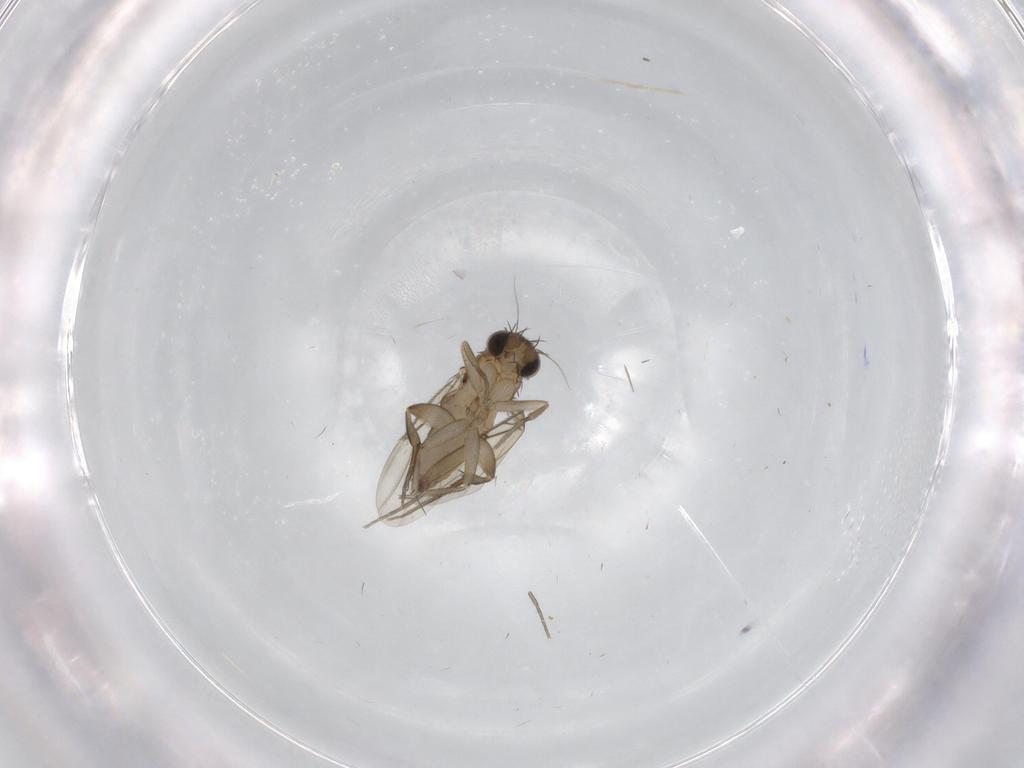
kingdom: Animalia
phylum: Arthropoda
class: Insecta
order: Diptera
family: Phoridae
